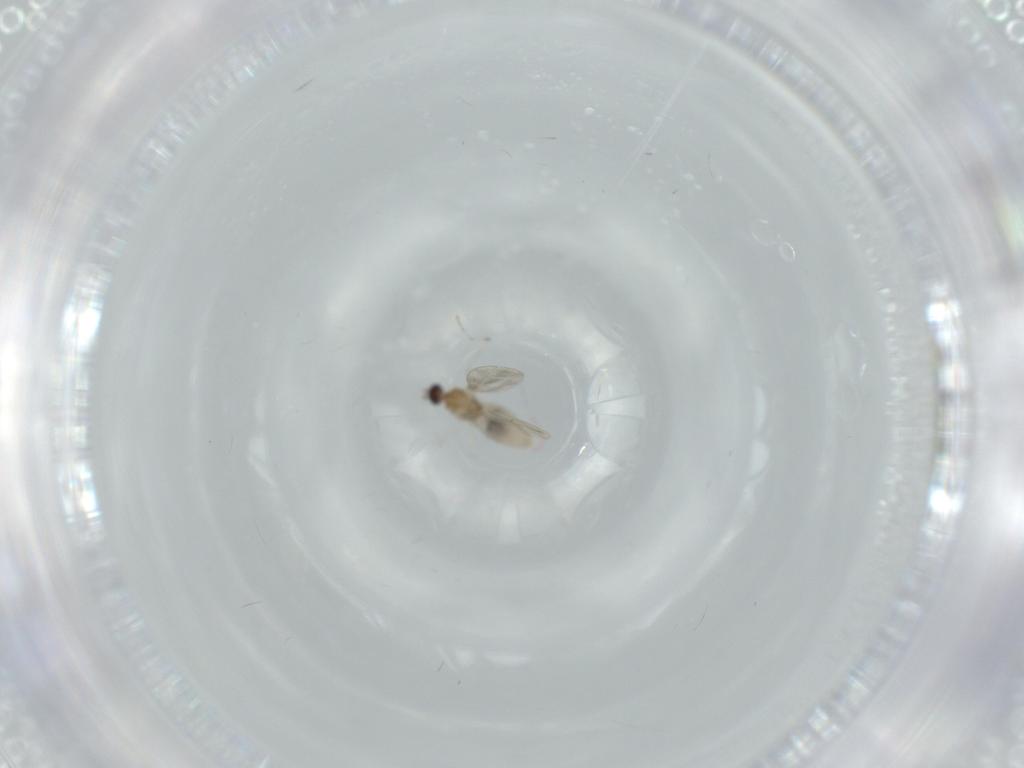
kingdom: Animalia
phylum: Arthropoda
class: Insecta
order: Diptera
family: Cecidomyiidae
